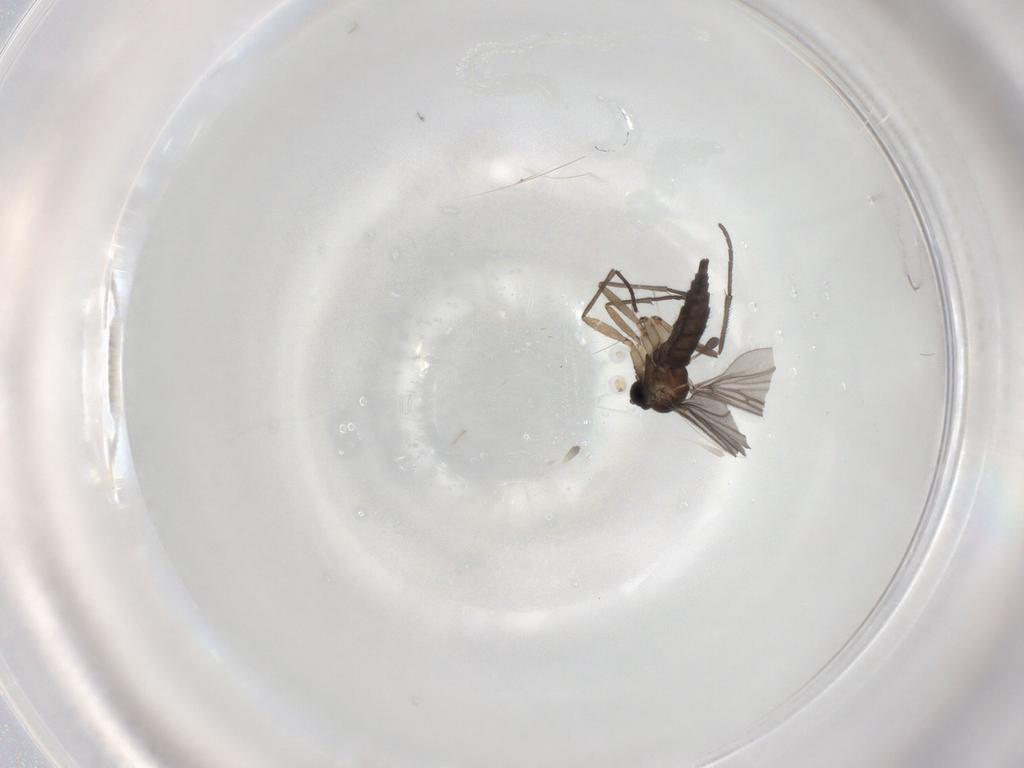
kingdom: Animalia
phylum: Arthropoda
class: Insecta
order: Diptera
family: Sciaridae
